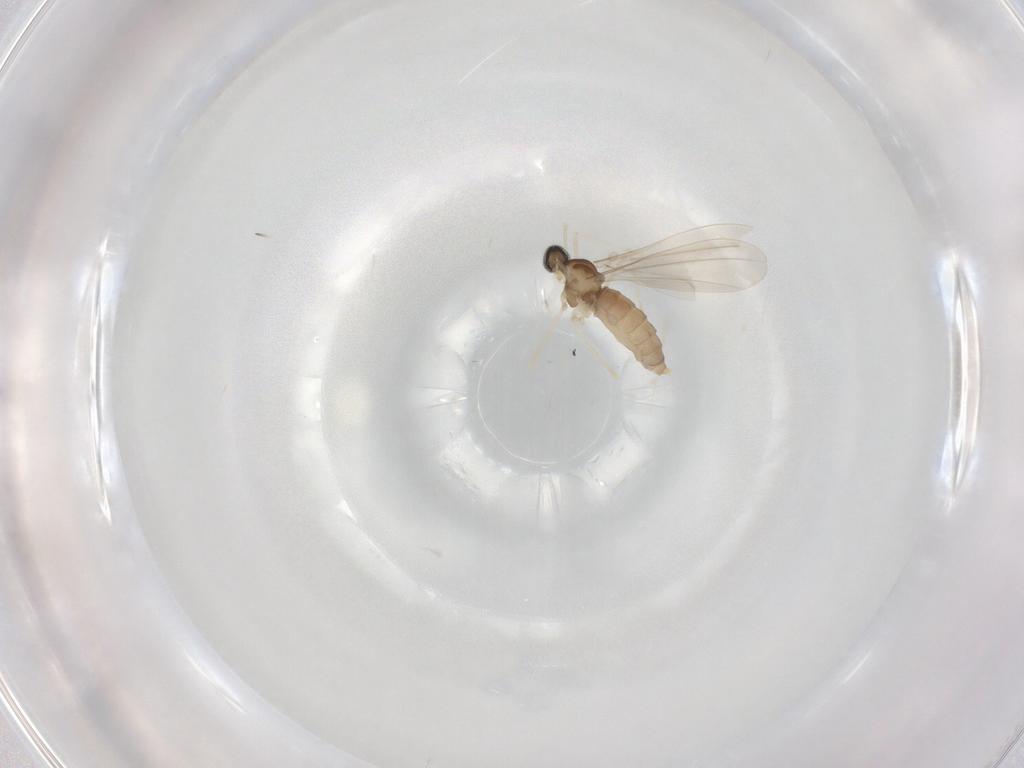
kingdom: Animalia
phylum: Arthropoda
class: Insecta
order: Diptera
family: Cecidomyiidae
